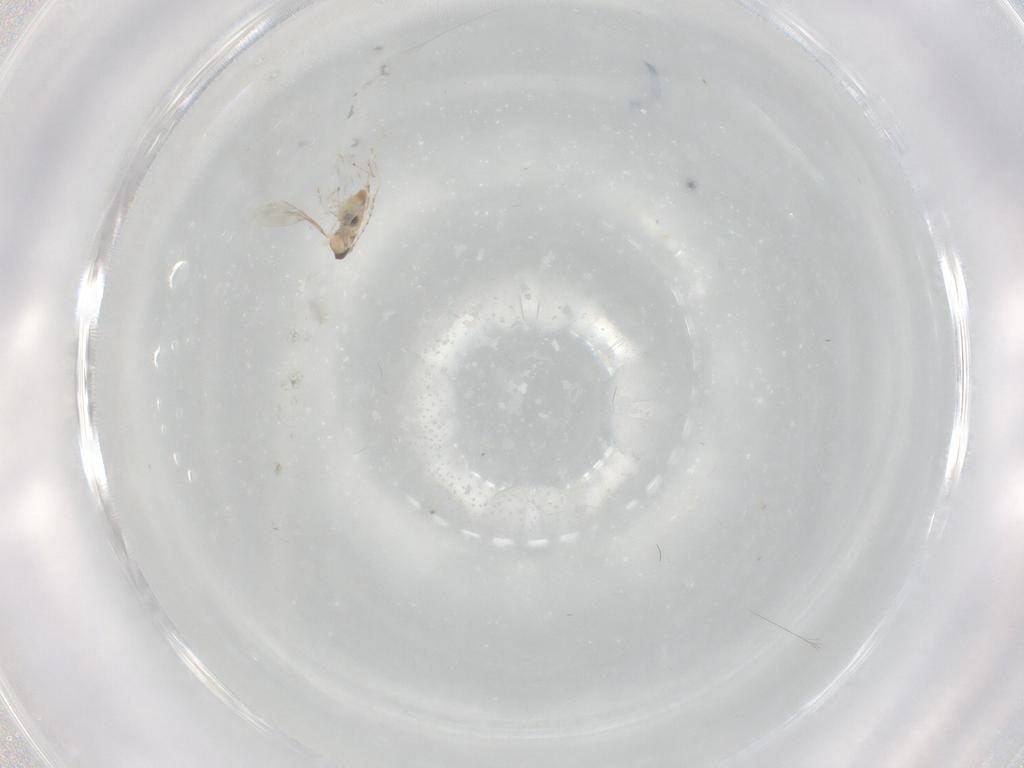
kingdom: Animalia
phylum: Arthropoda
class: Insecta
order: Diptera
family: Cecidomyiidae
